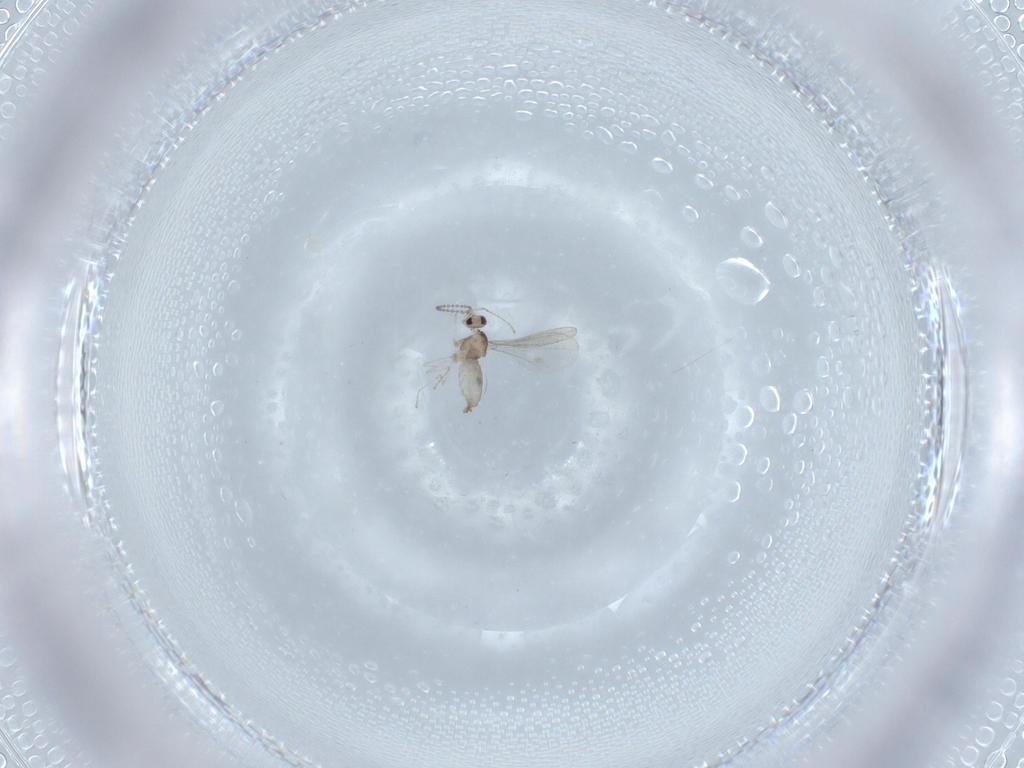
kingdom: Animalia
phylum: Arthropoda
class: Insecta
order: Diptera
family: Cecidomyiidae
